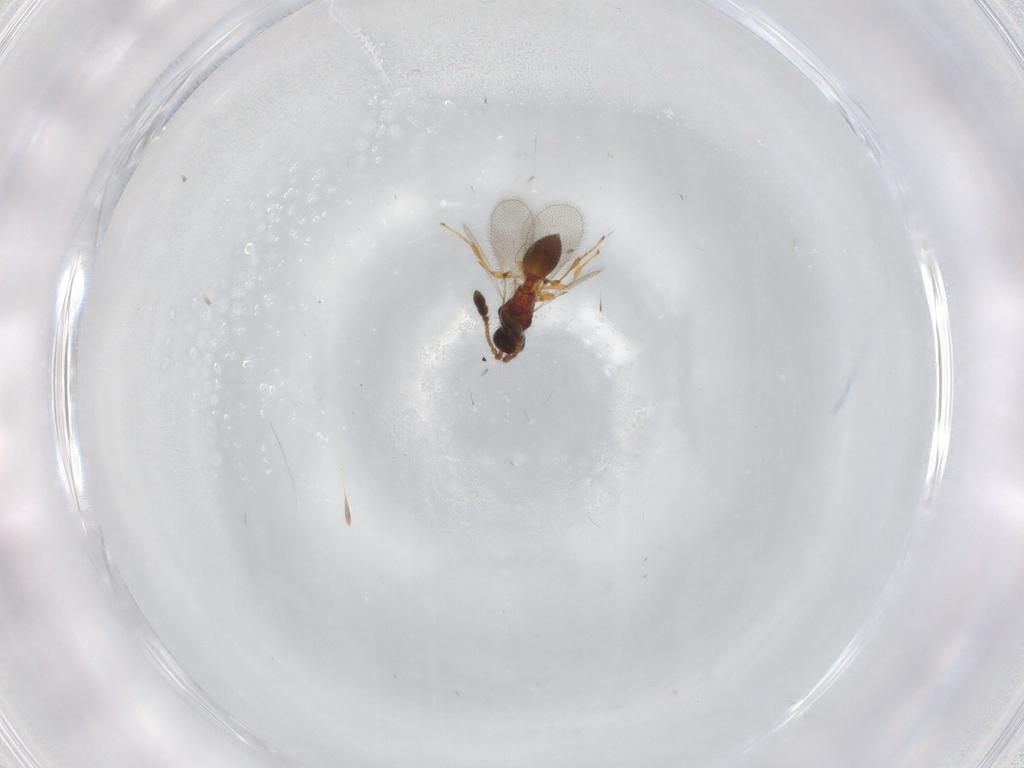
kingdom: Animalia
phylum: Arthropoda
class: Insecta
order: Hymenoptera
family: Diapriidae
